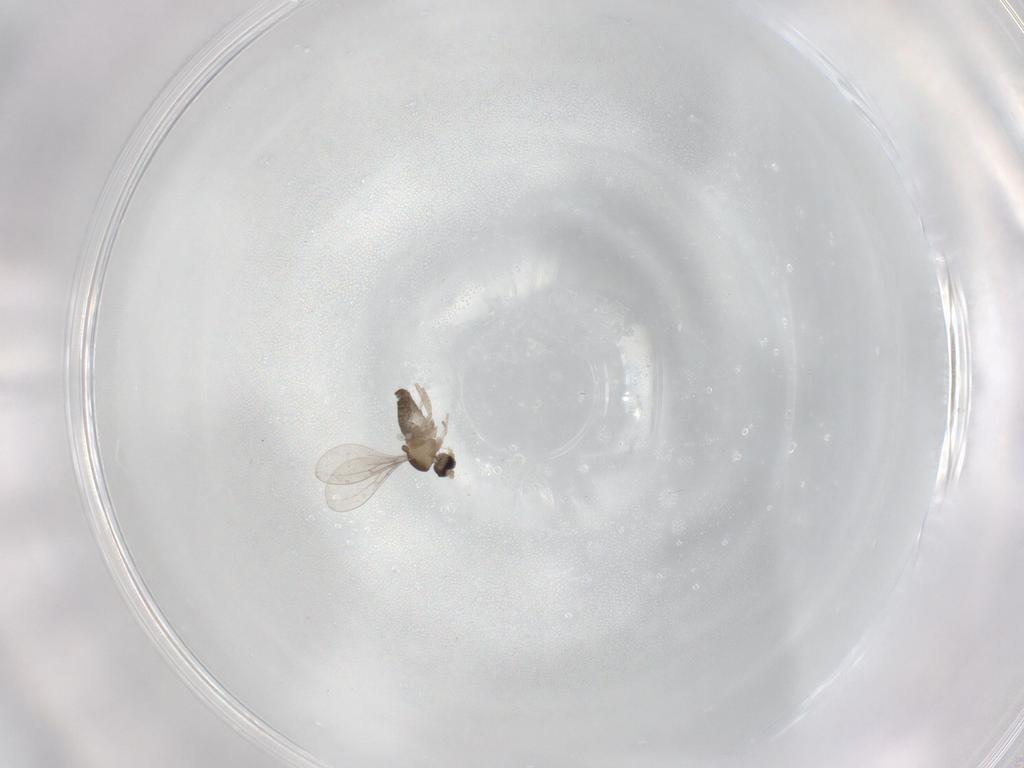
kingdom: Animalia
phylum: Arthropoda
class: Insecta
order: Diptera
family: Cecidomyiidae
